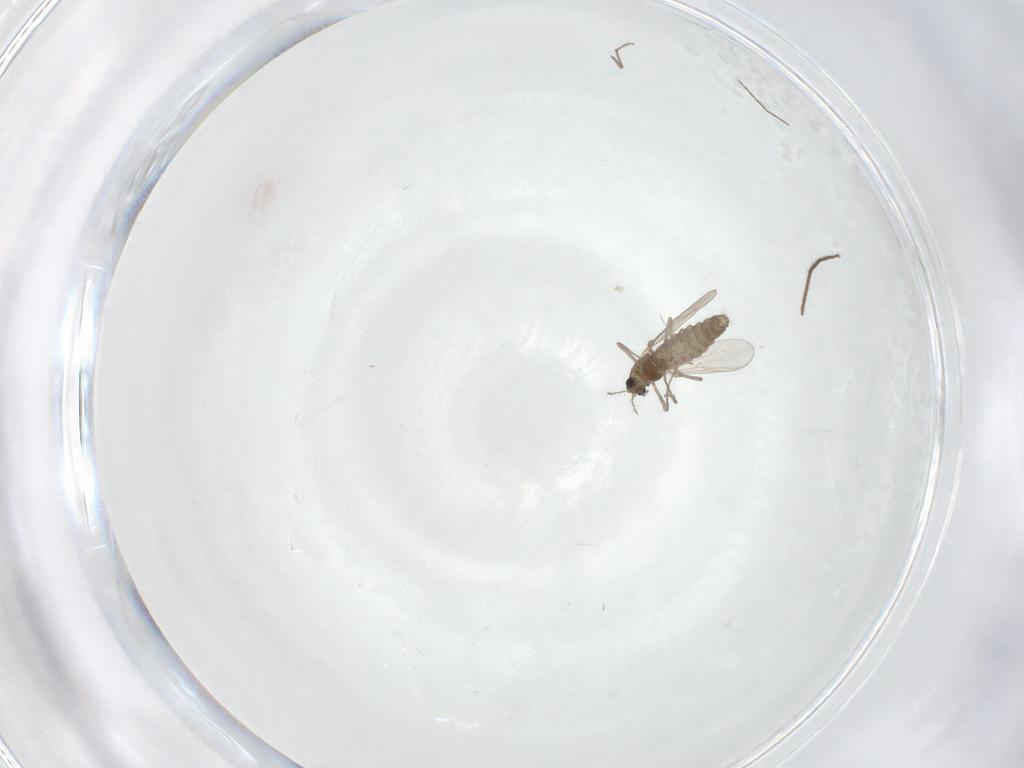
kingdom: Animalia
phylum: Arthropoda
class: Insecta
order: Diptera
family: Chironomidae
